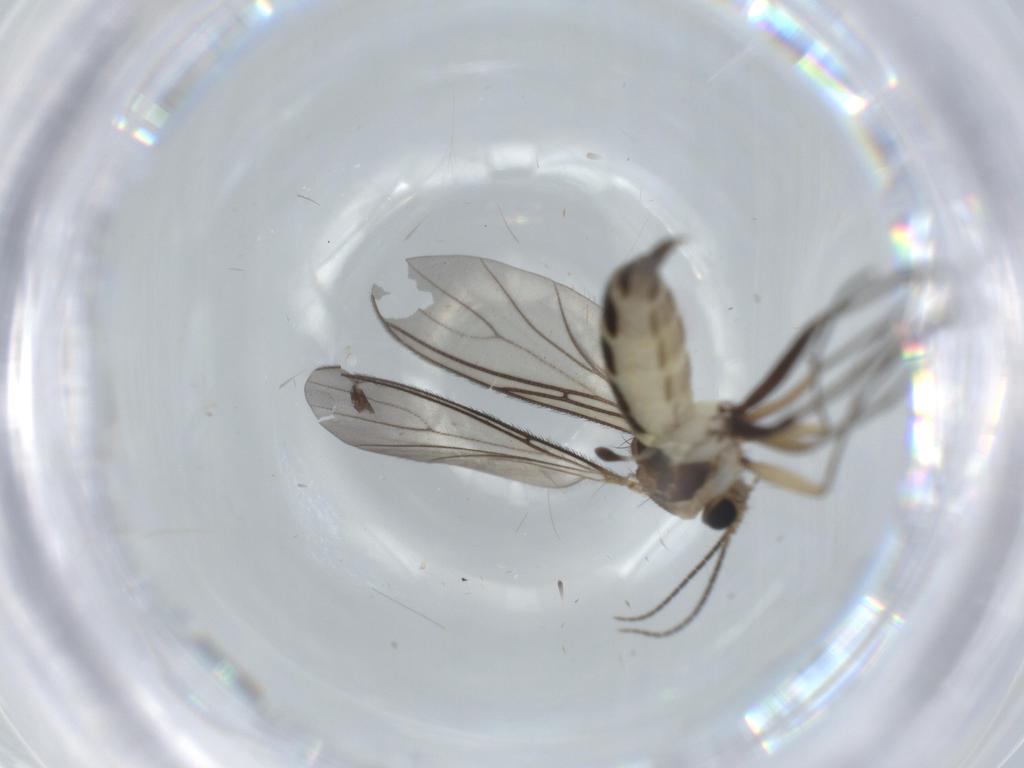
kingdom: Animalia
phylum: Arthropoda
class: Insecta
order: Diptera
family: Sciaridae
